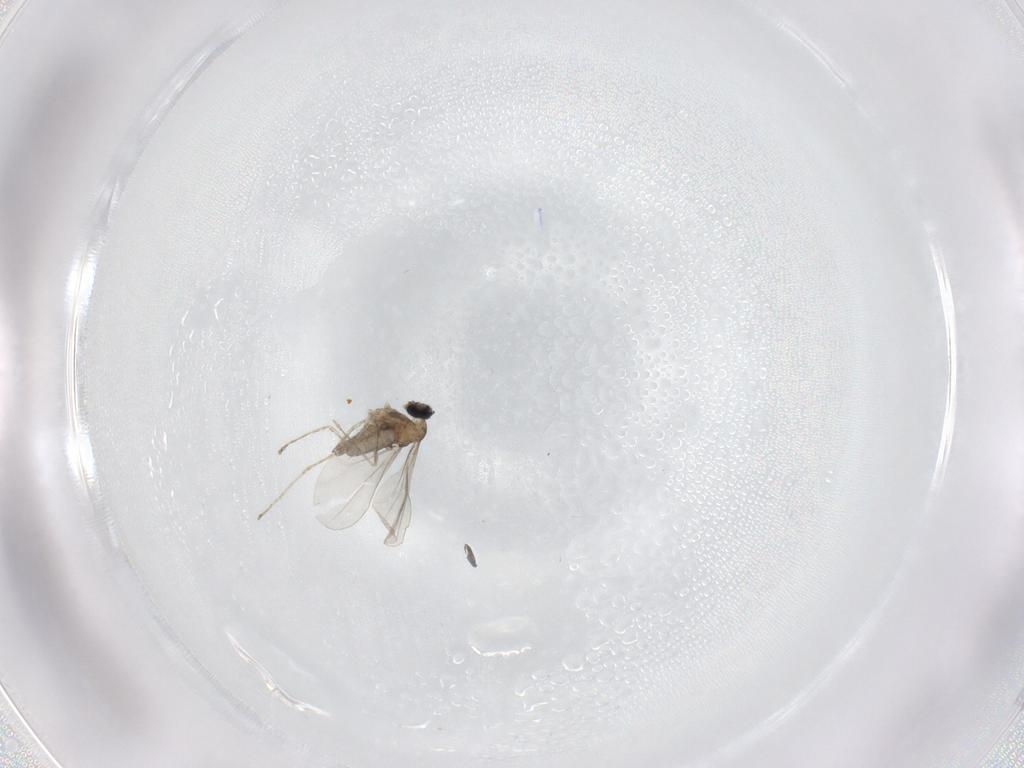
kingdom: Animalia
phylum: Arthropoda
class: Insecta
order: Diptera
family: Cecidomyiidae
